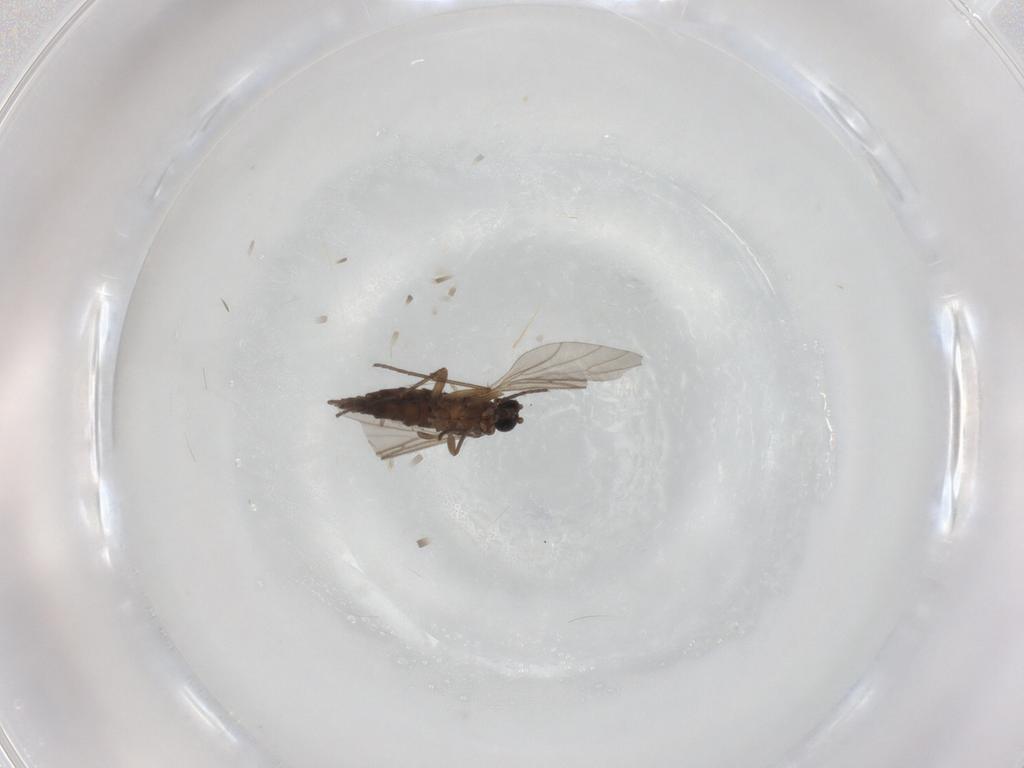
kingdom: Animalia
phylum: Arthropoda
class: Insecta
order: Diptera
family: Sciaridae
